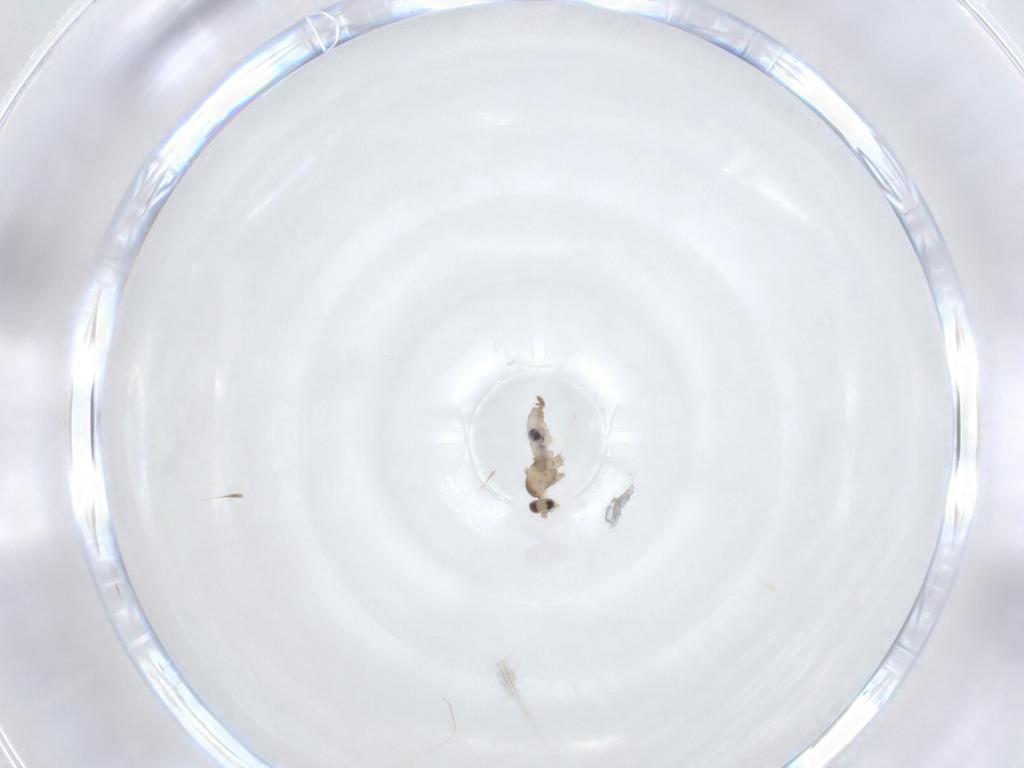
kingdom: Animalia
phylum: Arthropoda
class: Insecta
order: Diptera
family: Cecidomyiidae
